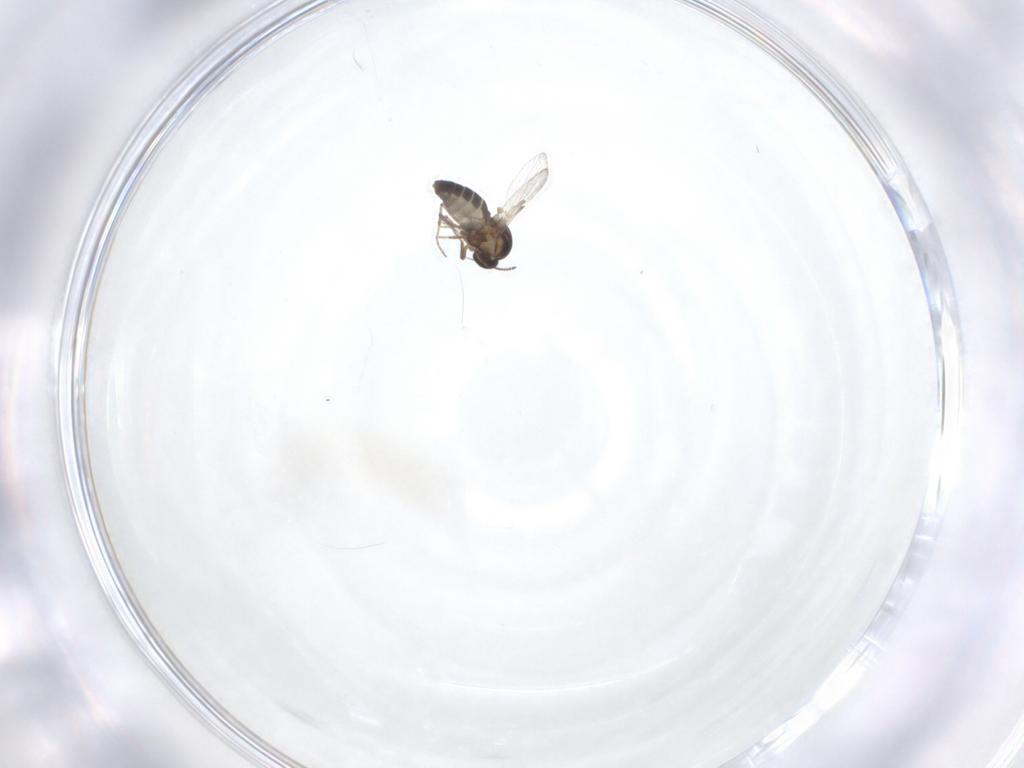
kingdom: Animalia
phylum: Arthropoda
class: Insecta
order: Diptera
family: Ceratopogonidae
